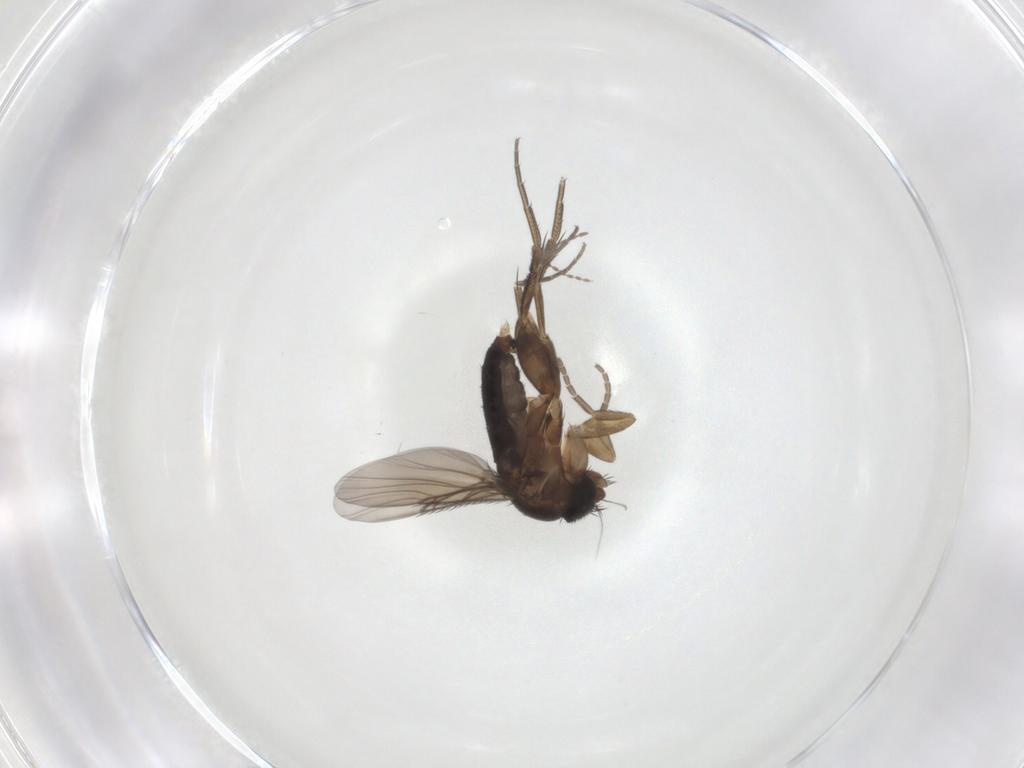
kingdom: Animalia
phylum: Arthropoda
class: Insecta
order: Diptera
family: Phoridae
